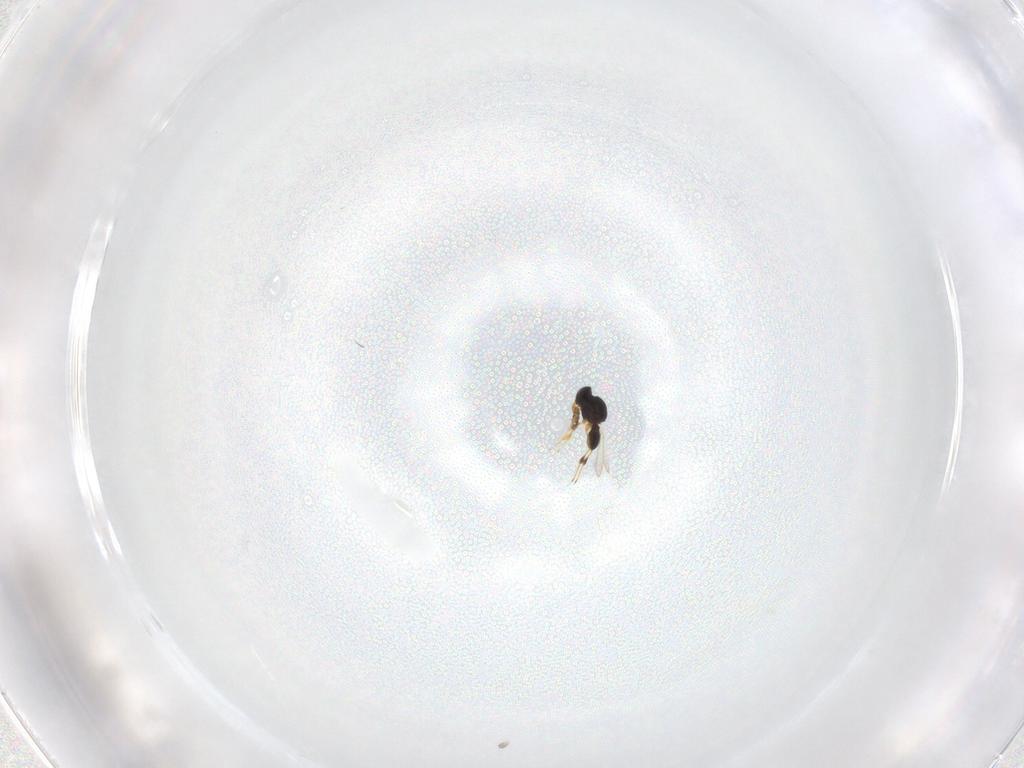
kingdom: Animalia
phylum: Arthropoda
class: Insecta
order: Hymenoptera
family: Platygastridae
